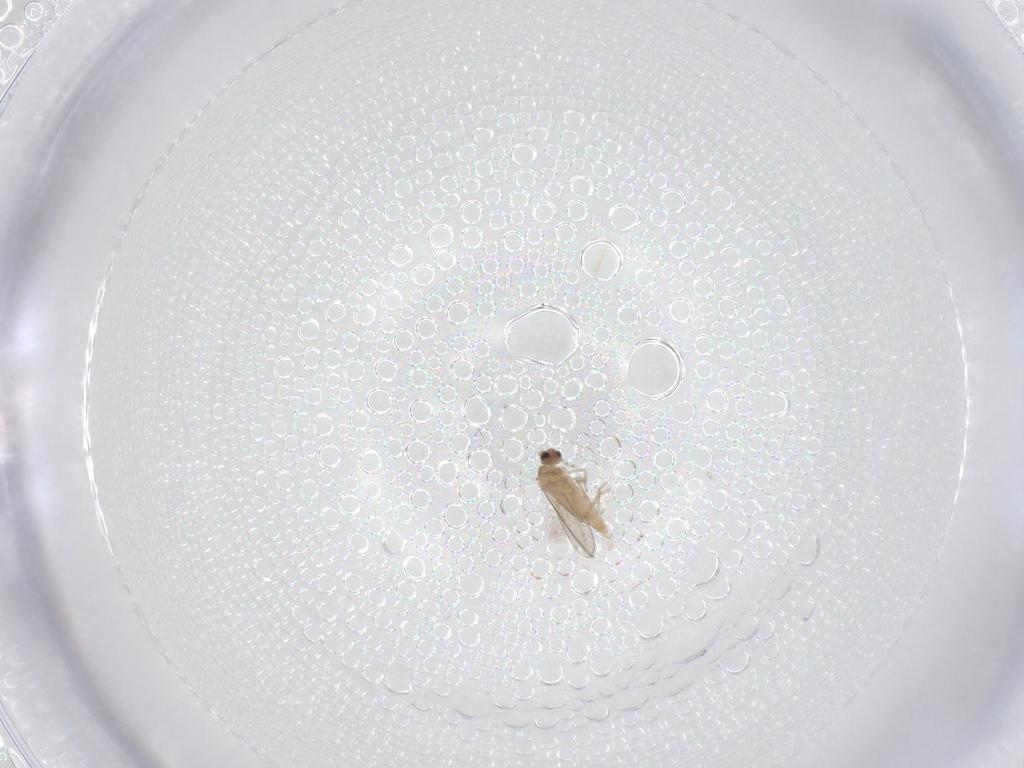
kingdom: Animalia
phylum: Arthropoda
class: Insecta
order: Diptera
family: Cecidomyiidae
